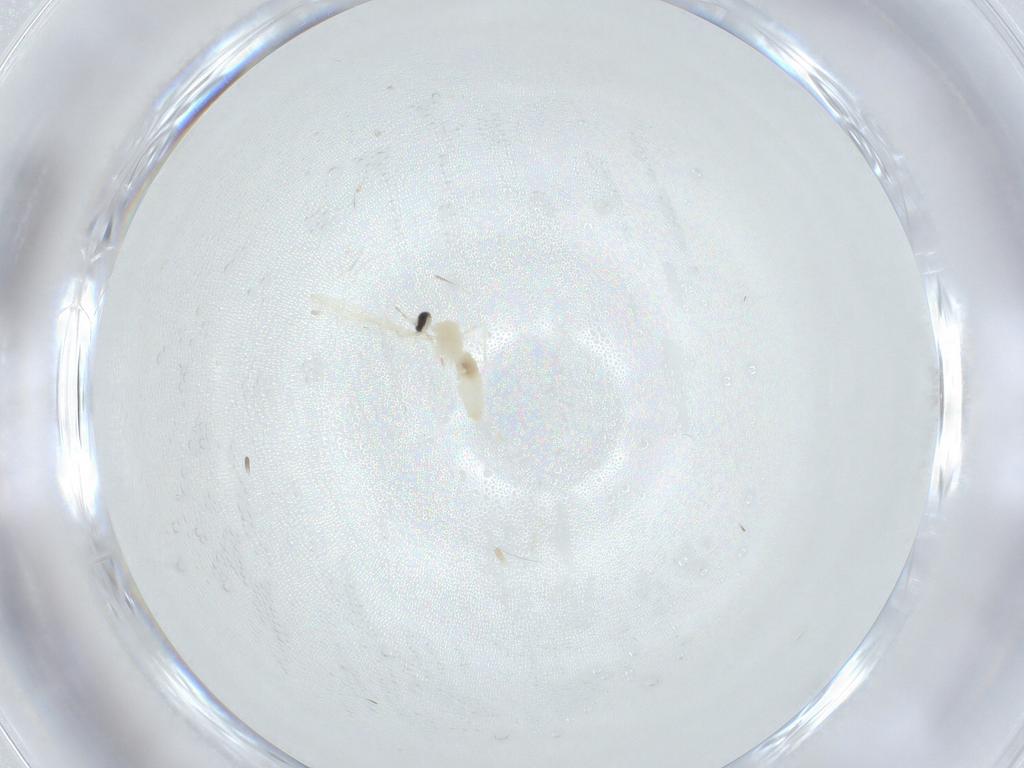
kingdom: Animalia
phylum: Arthropoda
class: Insecta
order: Diptera
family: Cecidomyiidae
